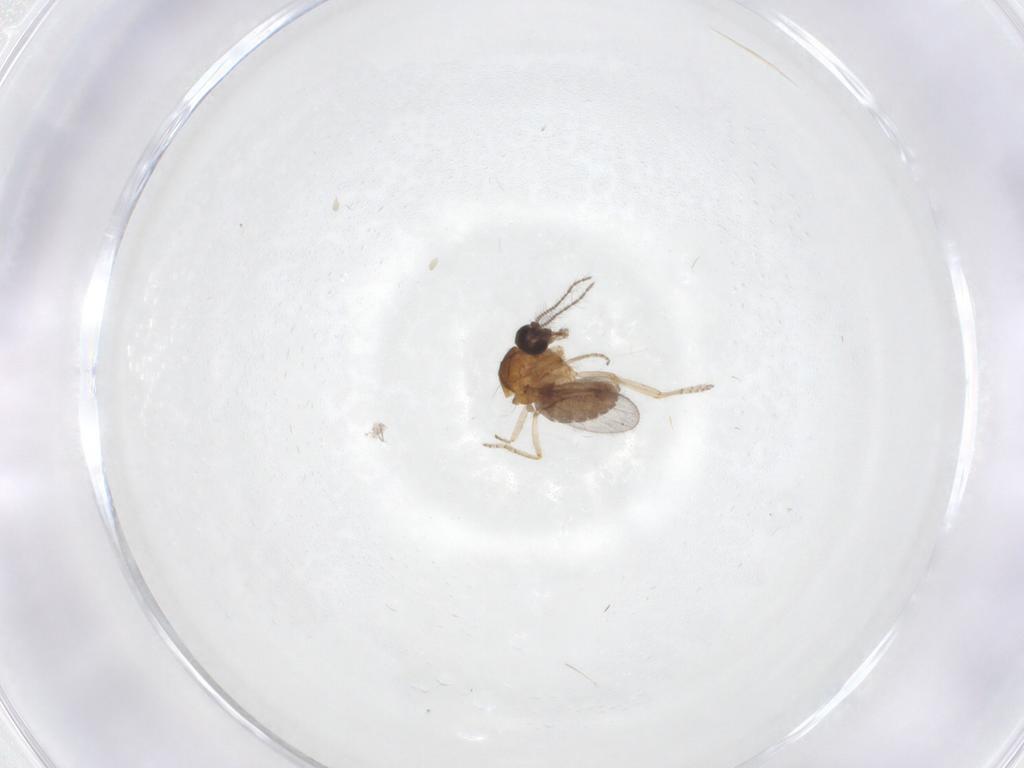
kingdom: Animalia
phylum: Arthropoda
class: Insecta
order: Diptera
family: Ceratopogonidae
